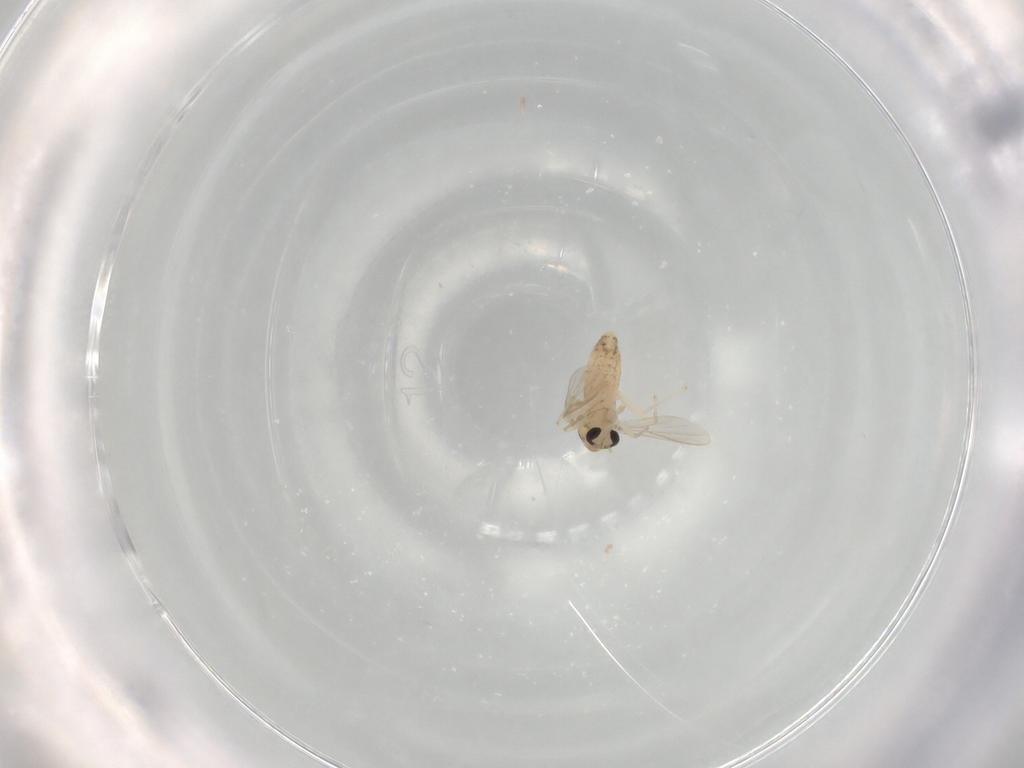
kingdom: Animalia
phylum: Arthropoda
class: Insecta
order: Diptera
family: Chironomidae
